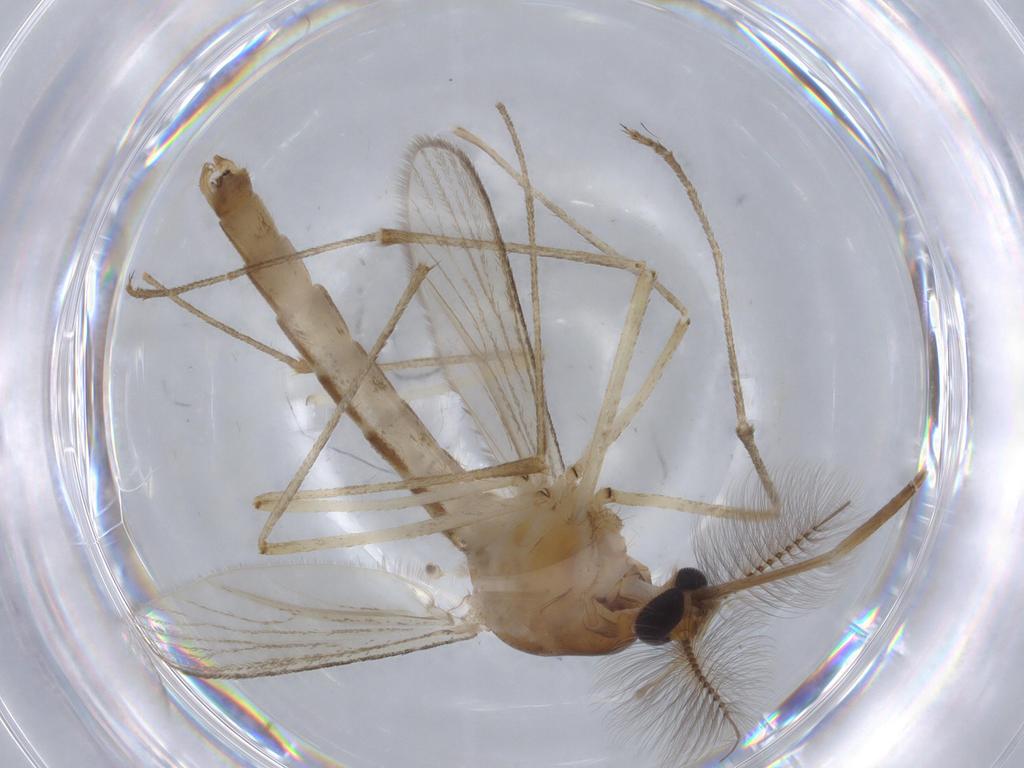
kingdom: Animalia
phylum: Arthropoda
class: Insecta
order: Diptera
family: Culicidae
